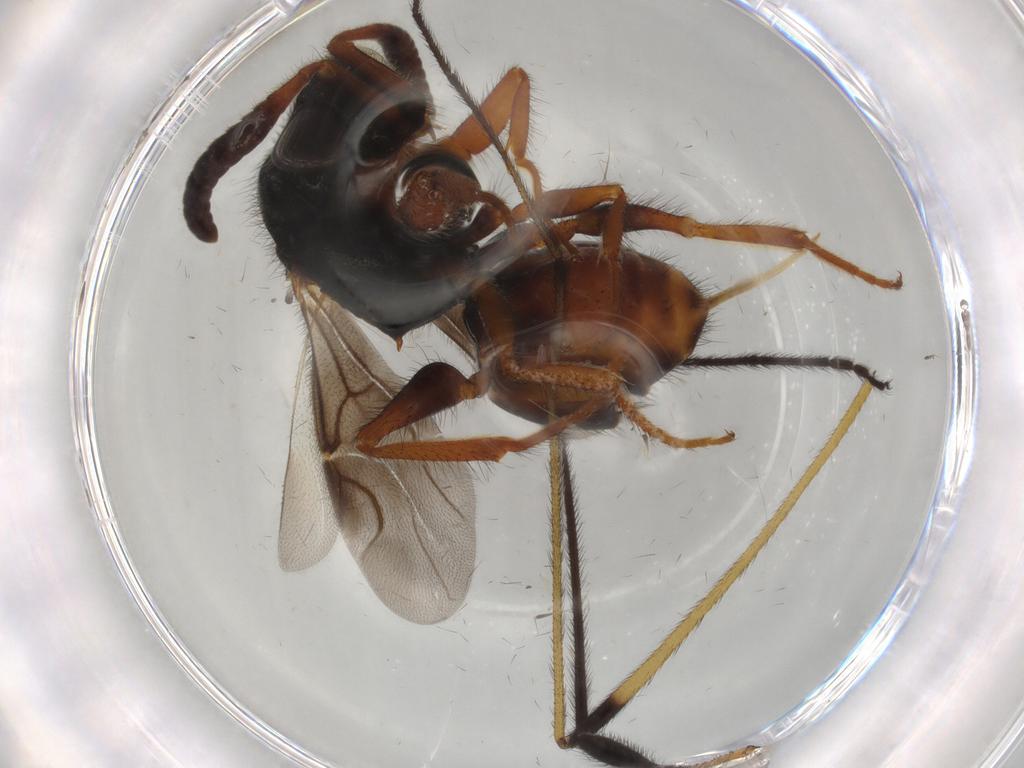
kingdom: Animalia
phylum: Arthropoda
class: Insecta
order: Hymenoptera
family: Chrysididae
